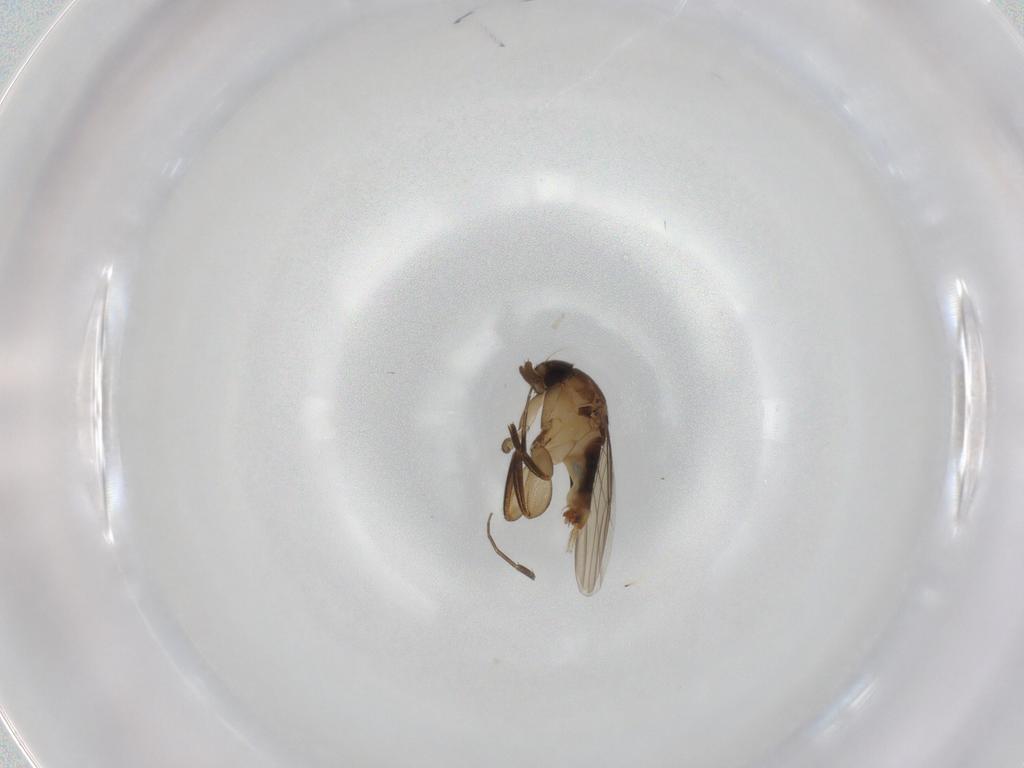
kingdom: Animalia
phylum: Arthropoda
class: Insecta
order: Diptera
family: Phoridae
